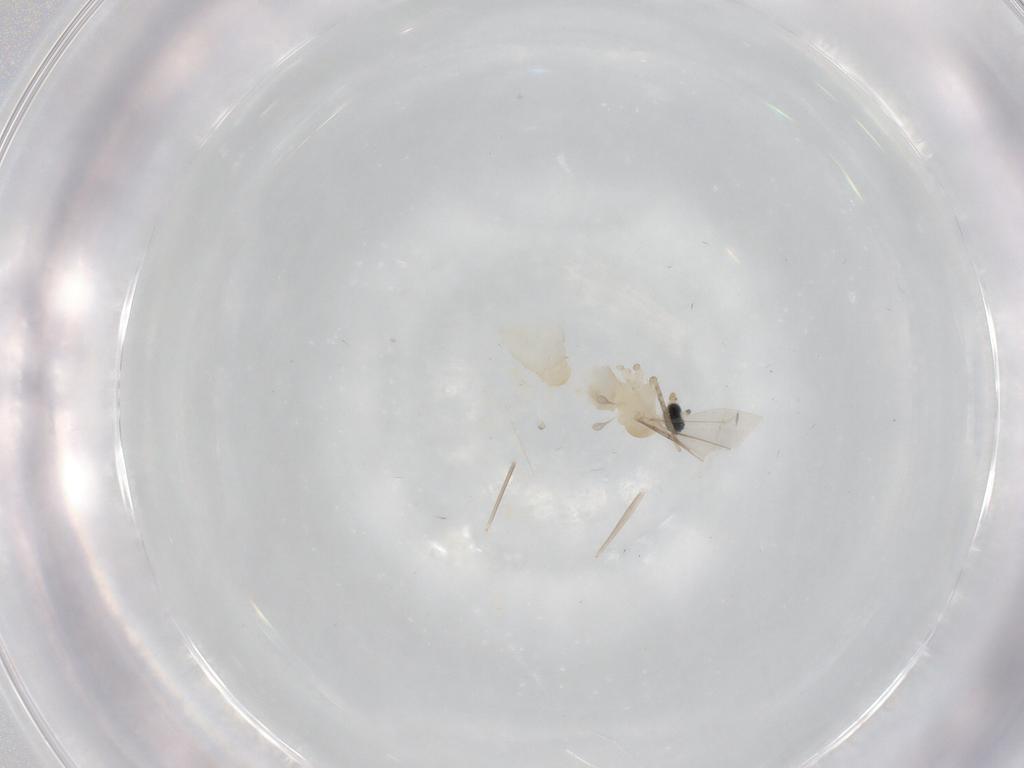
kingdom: Animalia
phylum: Arthropoda
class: Insecta
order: Diptera
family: Cecidomyiidae
